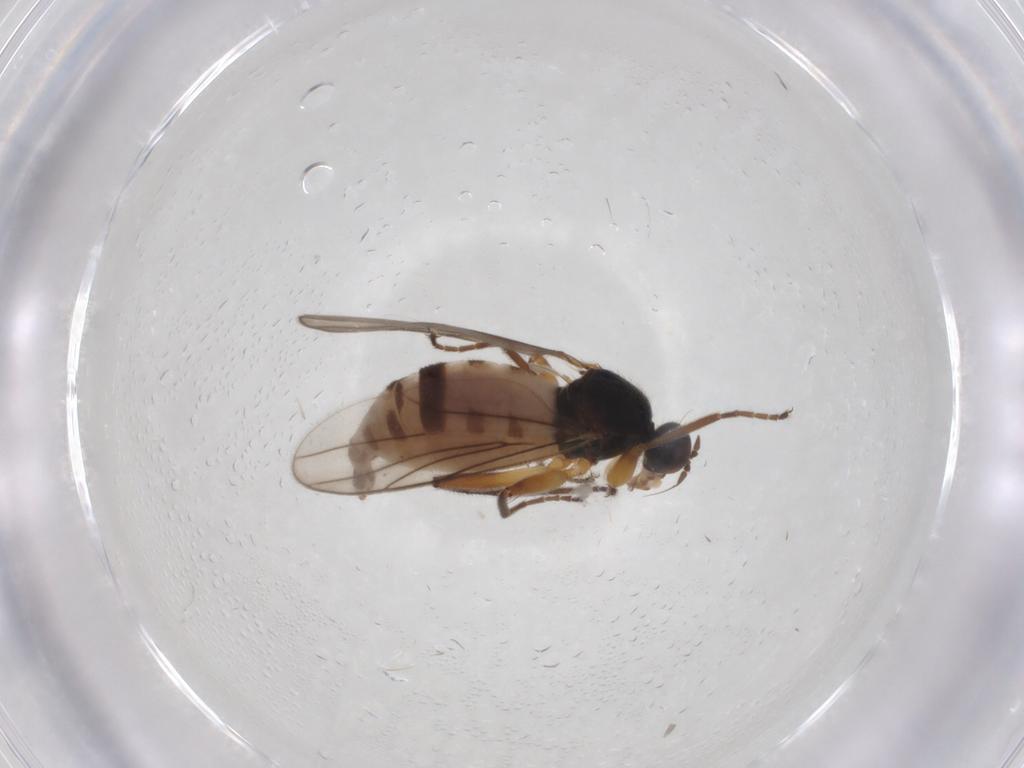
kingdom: Animalia
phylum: Arthropoda
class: Insecta
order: Diptera
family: Hybotidae
